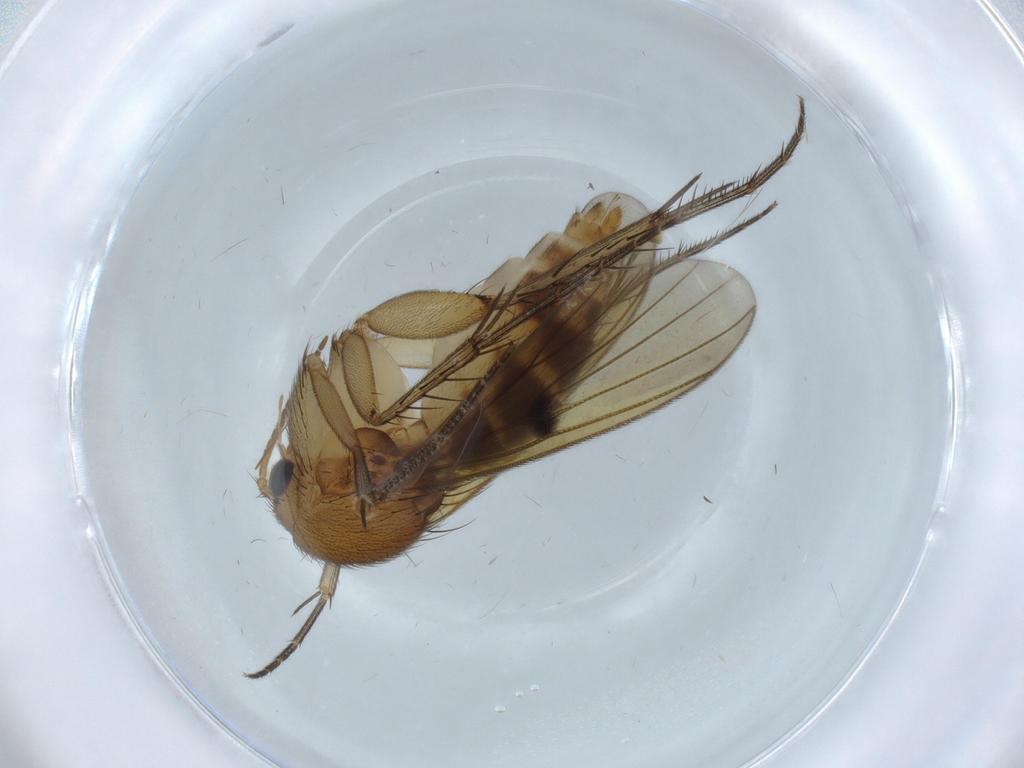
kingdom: Animalia
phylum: Arthropoda
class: Insecta
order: Diptera
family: Mycetophilidae
